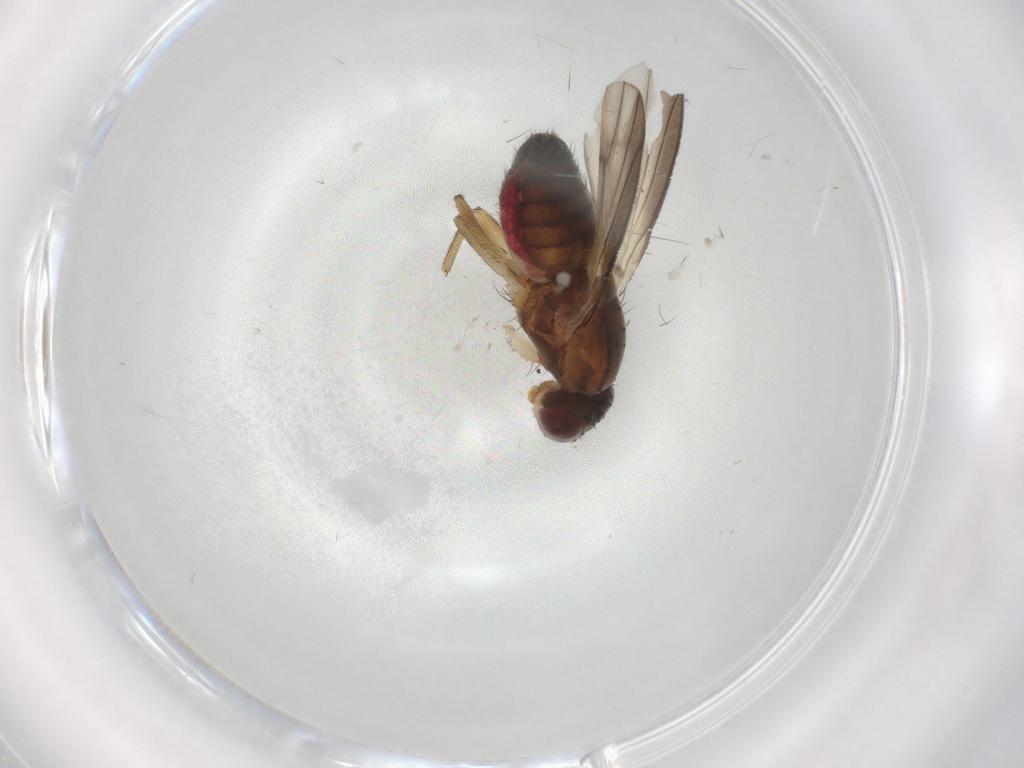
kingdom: Animalia
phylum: Arthropoda
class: Insecta
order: Diptera
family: Heleomyzidae
